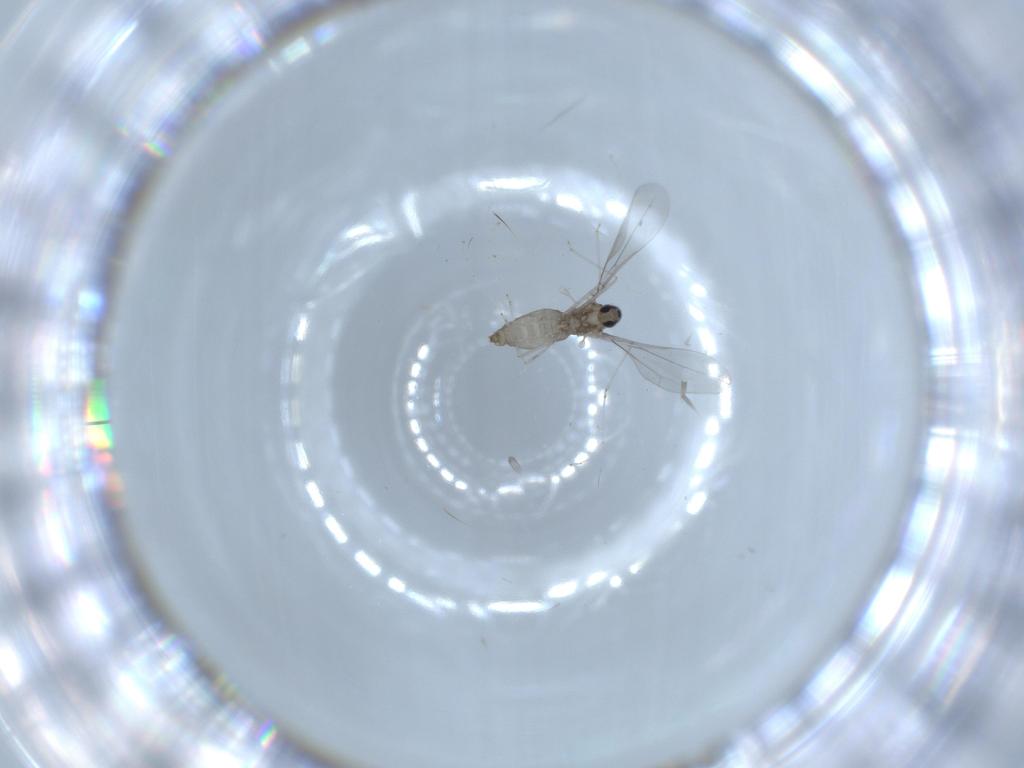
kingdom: Animalia
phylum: Arthropoda
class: Insecta
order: Diptera
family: Cecidomyiidae
